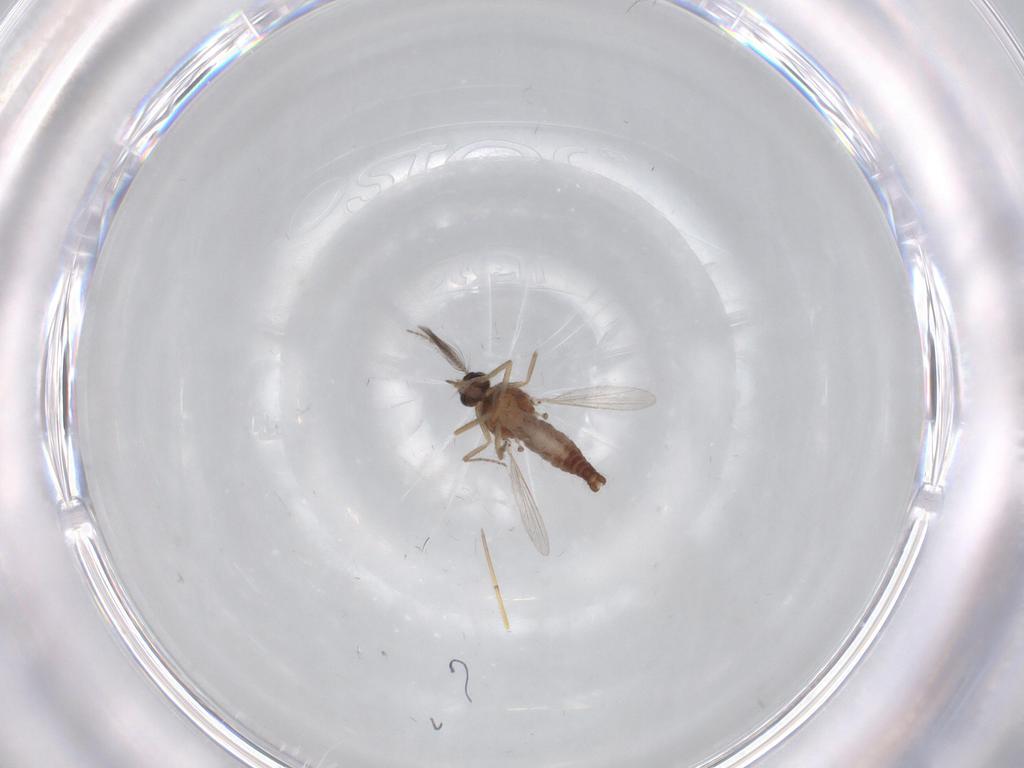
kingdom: Animalia
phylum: Arthropoda
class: Insecta
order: Diptera
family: Ceratopogonidae
